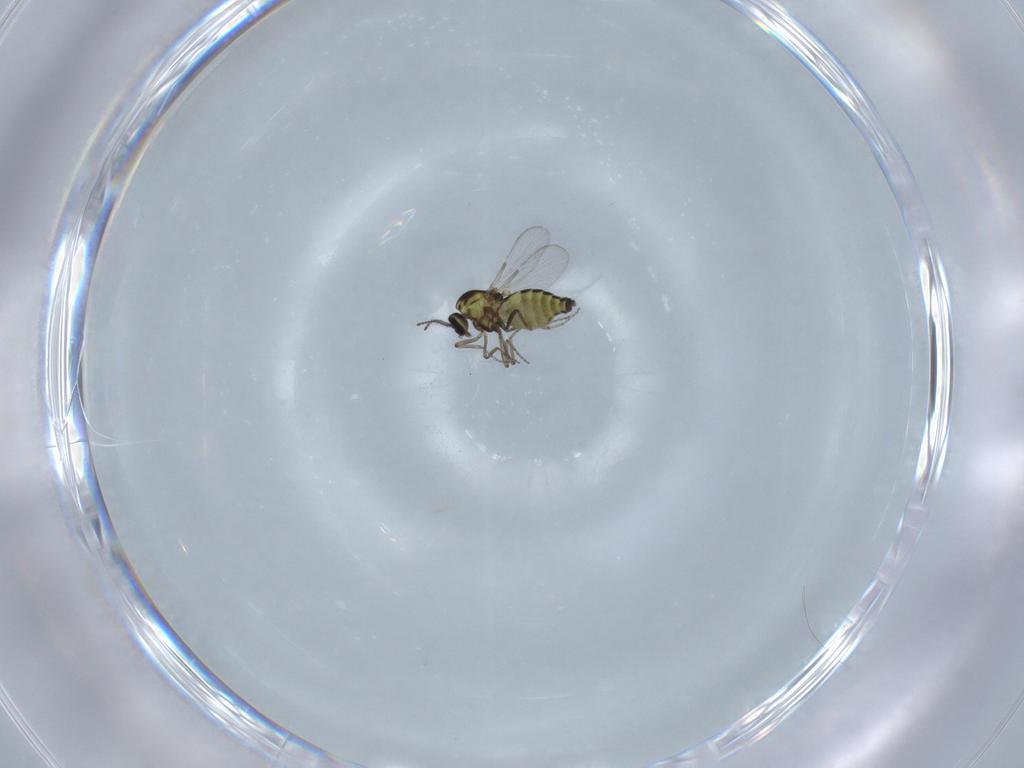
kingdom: Animalia
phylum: Arthropoda
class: Insecta
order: Diptera
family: Ceratopogonidae
